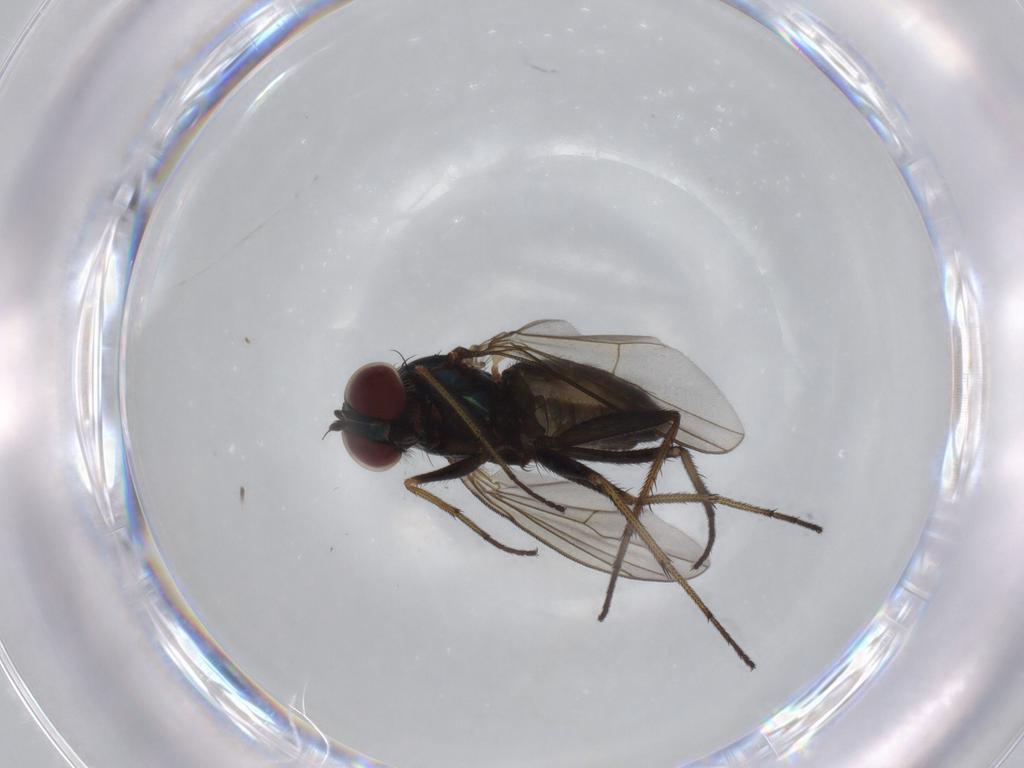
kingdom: Animalia
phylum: Arthropoda
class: Insecta
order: Diptera
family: Dolichopodidae
